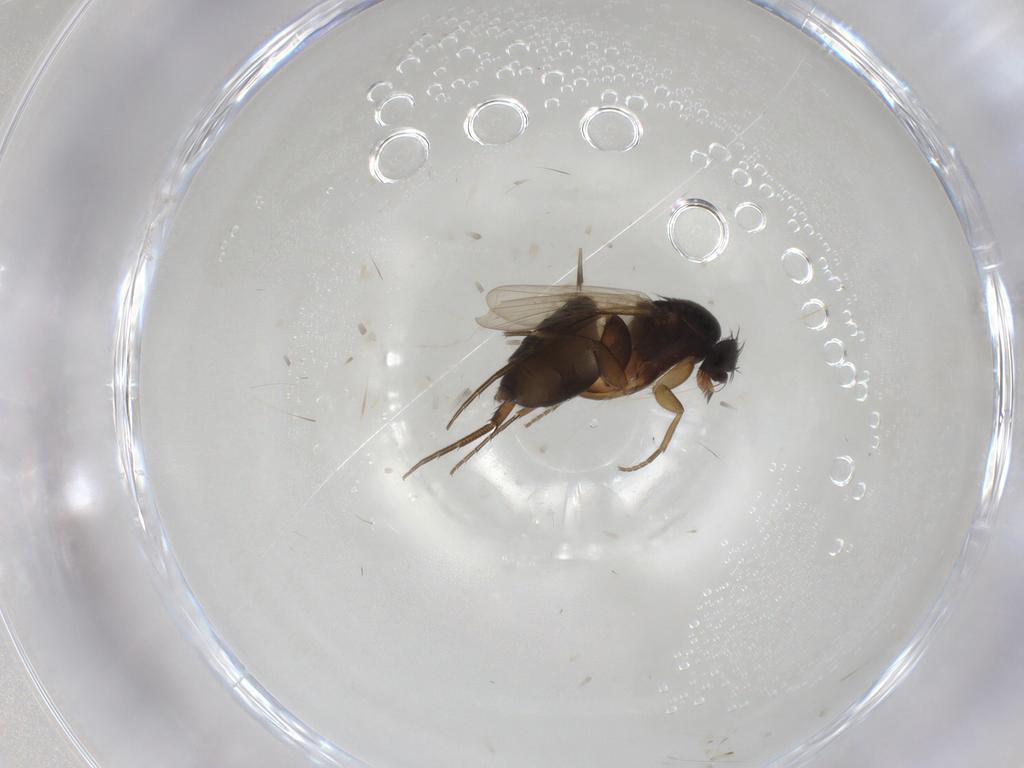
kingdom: Animalia
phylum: Arthropoda
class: Insecta
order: Diptera
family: Phoridae
